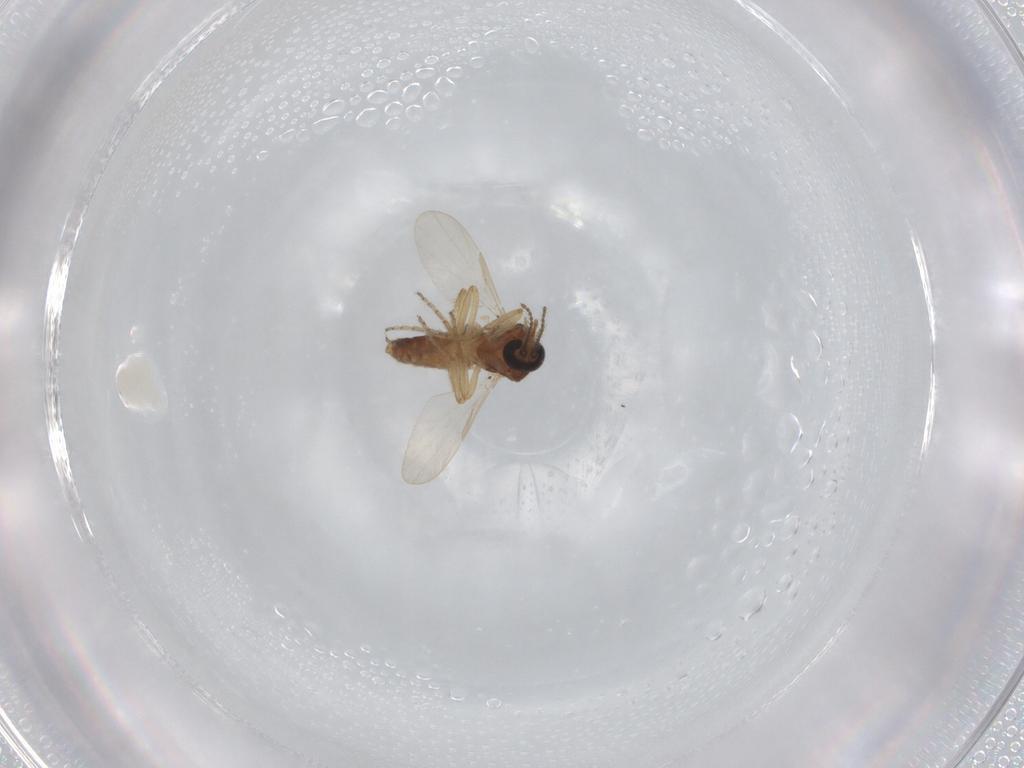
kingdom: Animalia
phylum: Arthropoda
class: Insecta
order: Diptera
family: Ceratopogonidae
